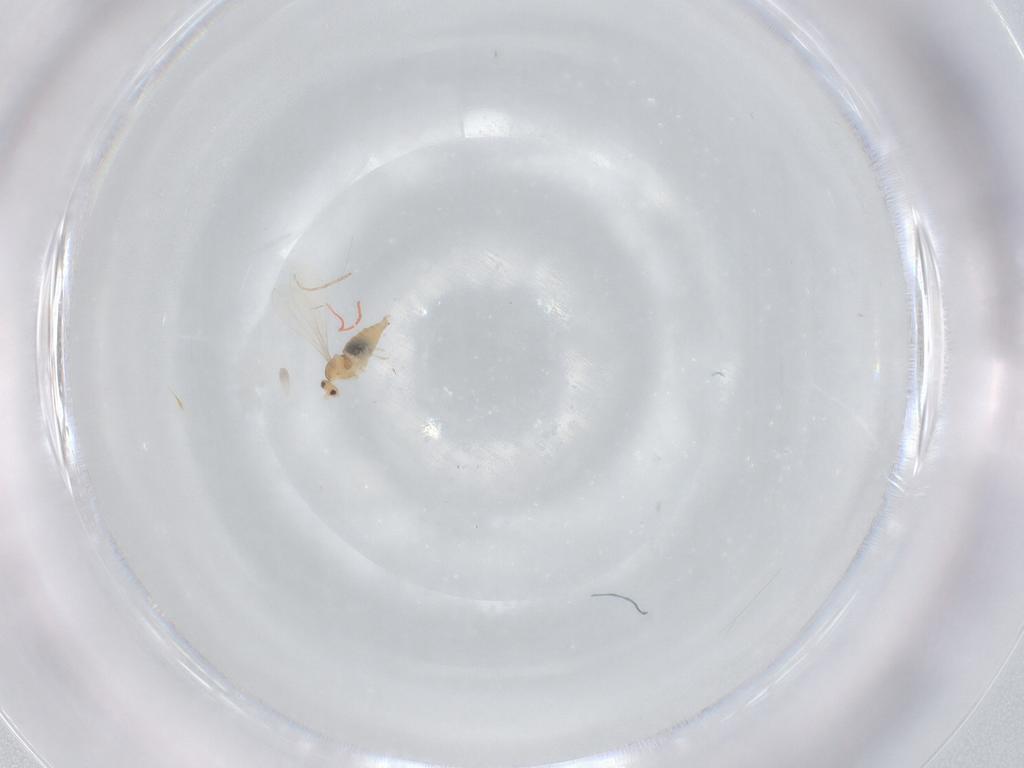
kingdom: Animalia
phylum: Arthropoda
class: Insecta
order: Diptera
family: Cecidomyiidae
